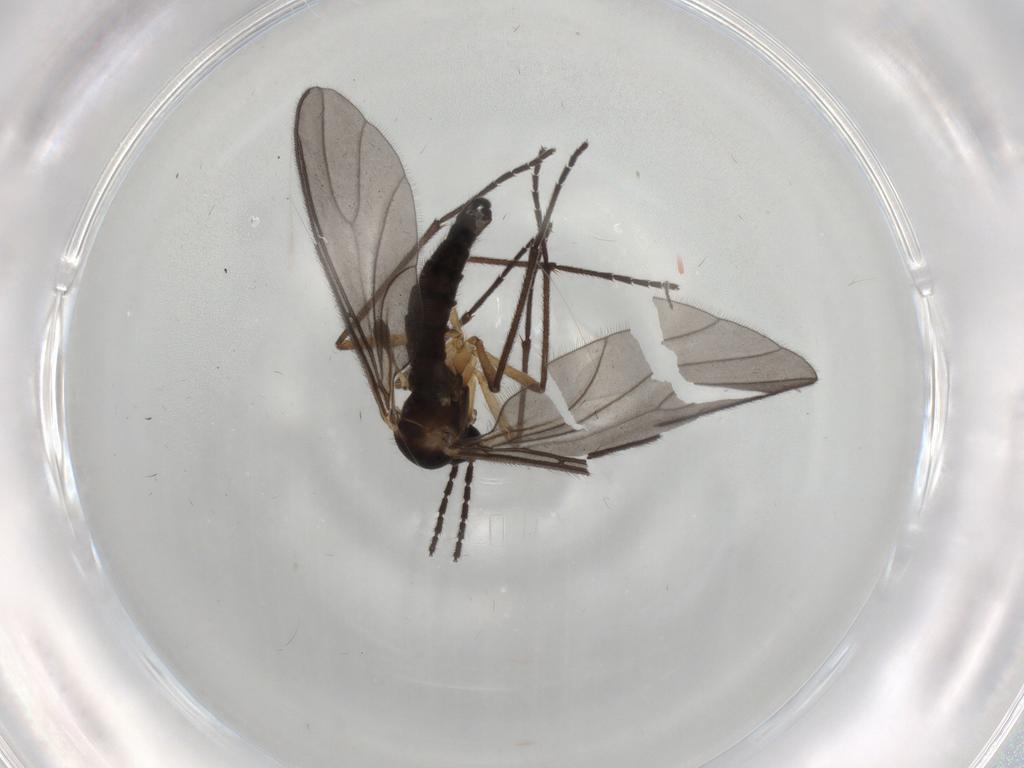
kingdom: Animalia
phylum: Arthropoda
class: Insecta
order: Diptera
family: Sciaridae
